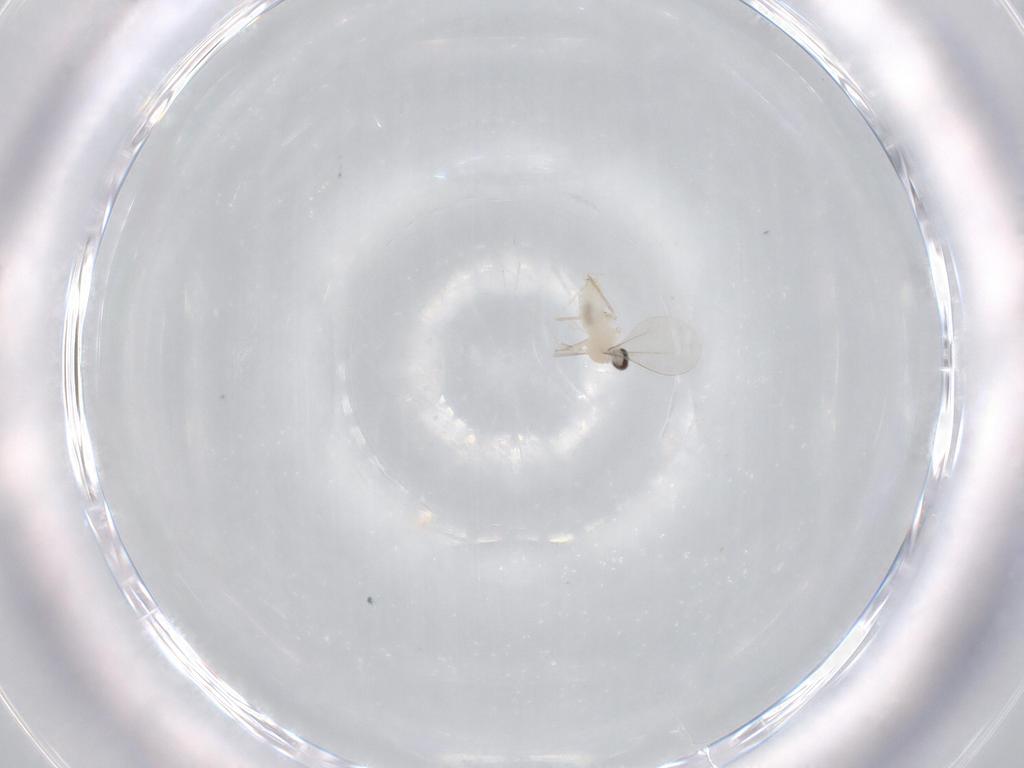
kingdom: Animalia
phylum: Arthropoda
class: Insecta
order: Diptera
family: Cecidomyiidae
